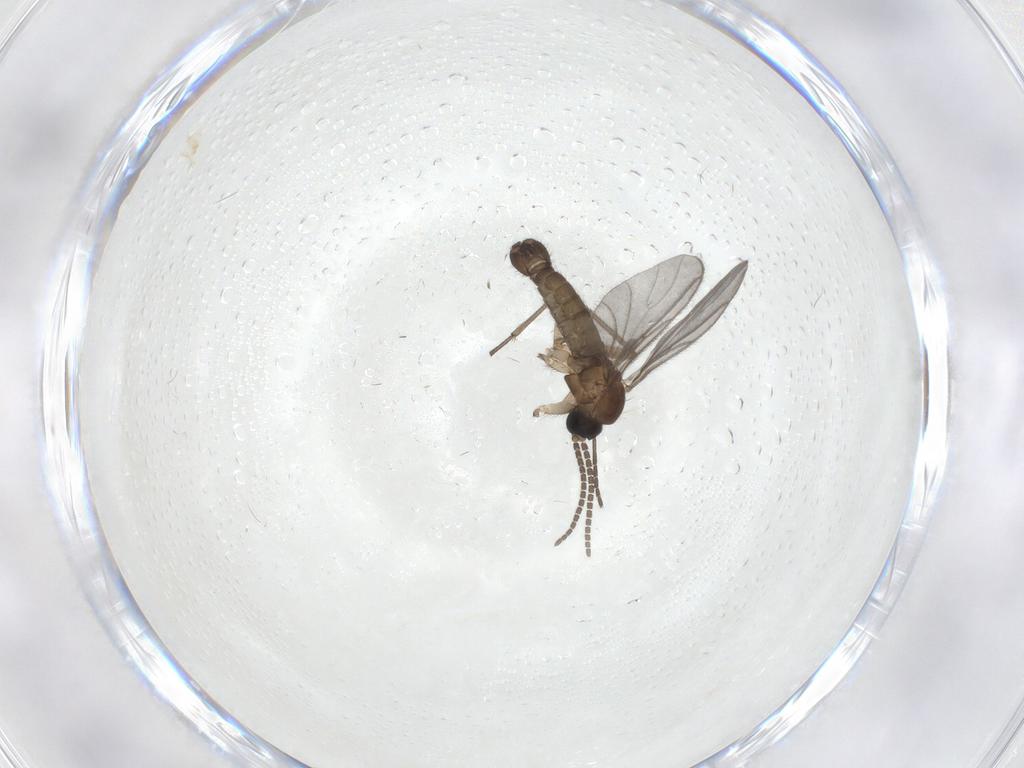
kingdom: Animalia
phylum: Arthropoda
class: Insecta
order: Diptera
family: Sciaridae
